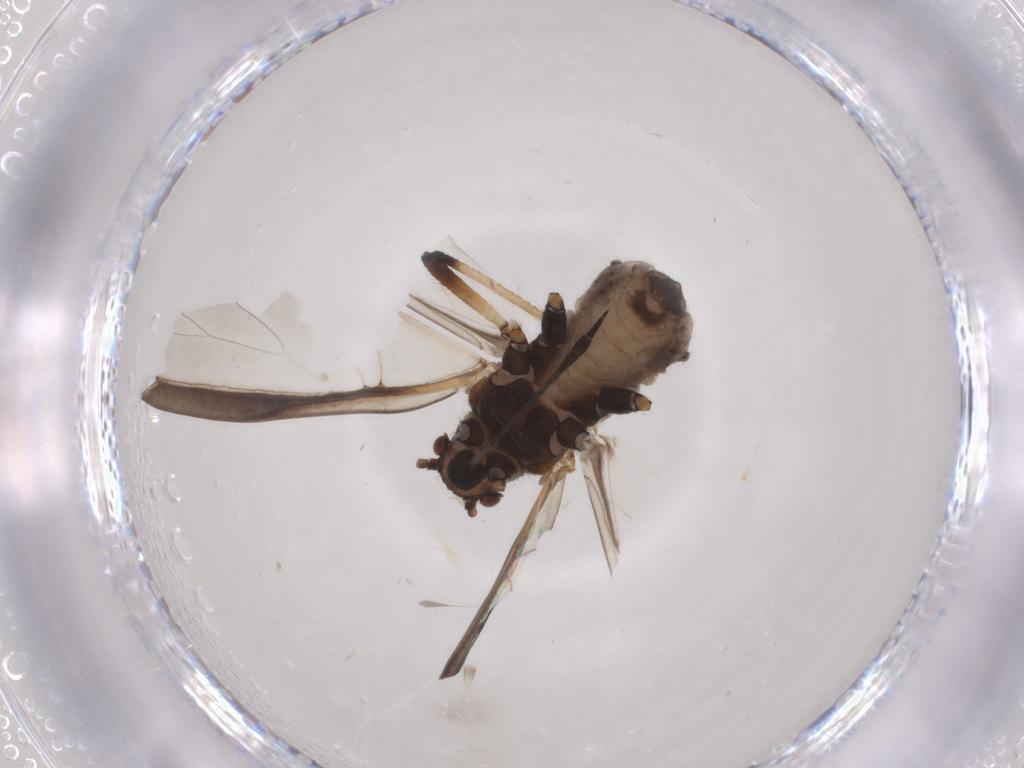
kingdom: Animalia
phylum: Arthropoda
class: Insecta
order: Hemiptera
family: Lachnidae
